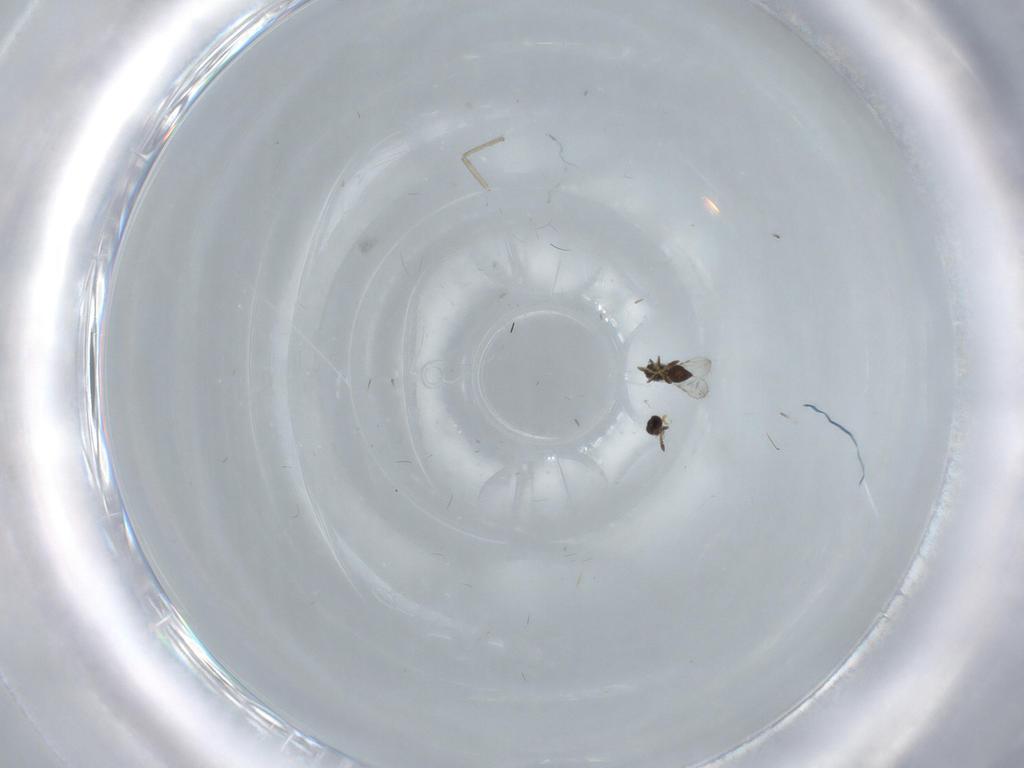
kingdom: Animalia
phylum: Arthropoda
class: Insecta
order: Diptera
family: Cecidomyiidae
